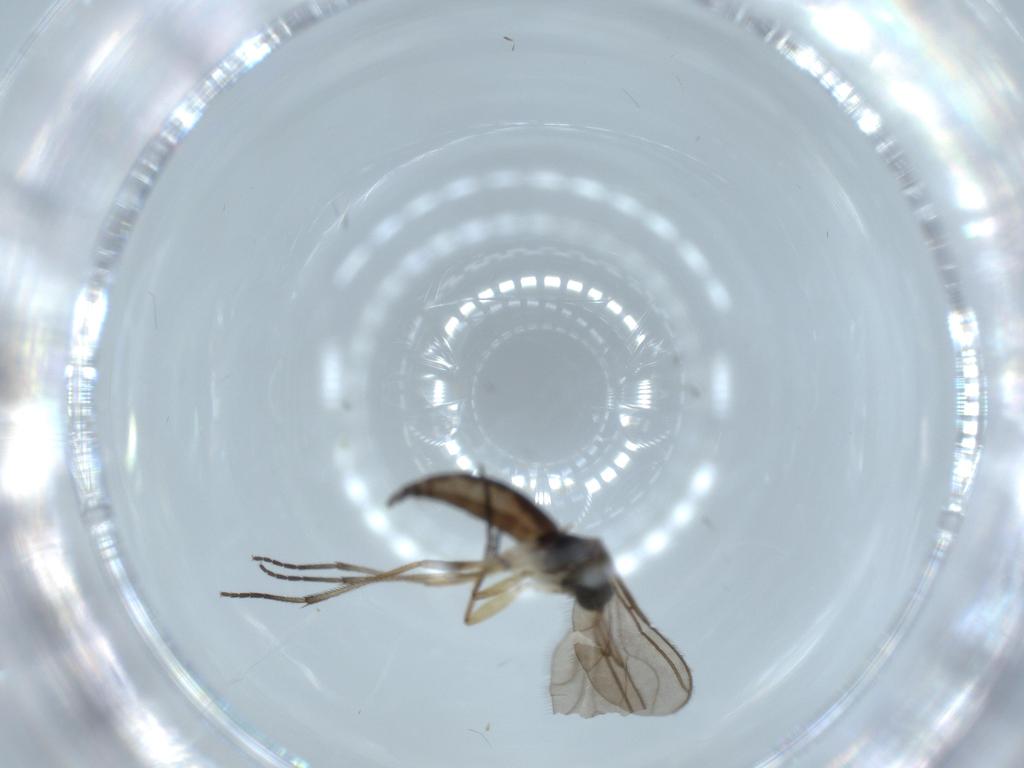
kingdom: Animalia
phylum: Arthropoda
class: Insecta
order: Diptera
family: Sciaridae
